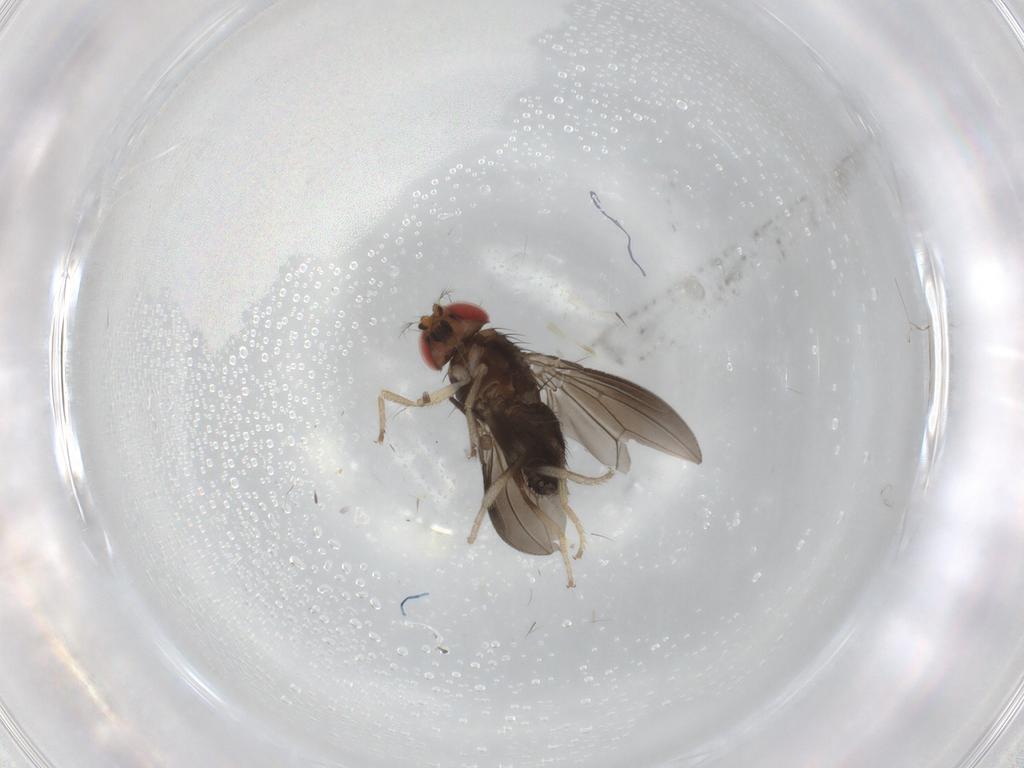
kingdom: Animalia
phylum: Arthropoda
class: Insecta
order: Diptera
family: Chironomidae
